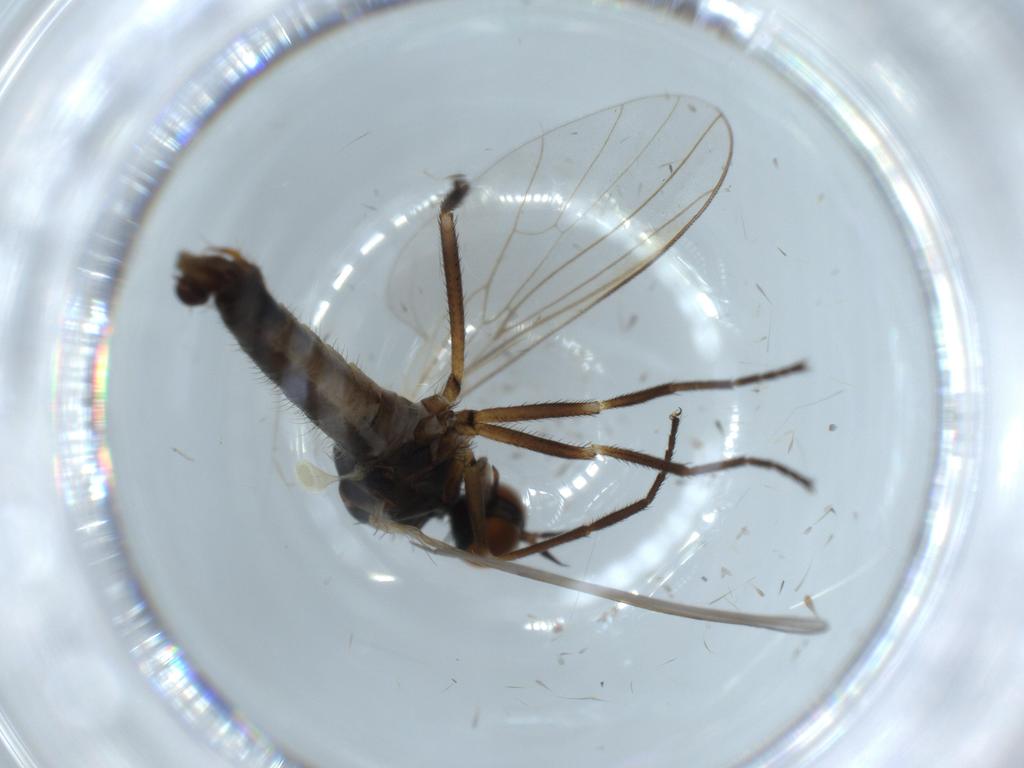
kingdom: Animalia
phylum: Arthropoda
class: Insecta
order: Diptera
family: Empididae
